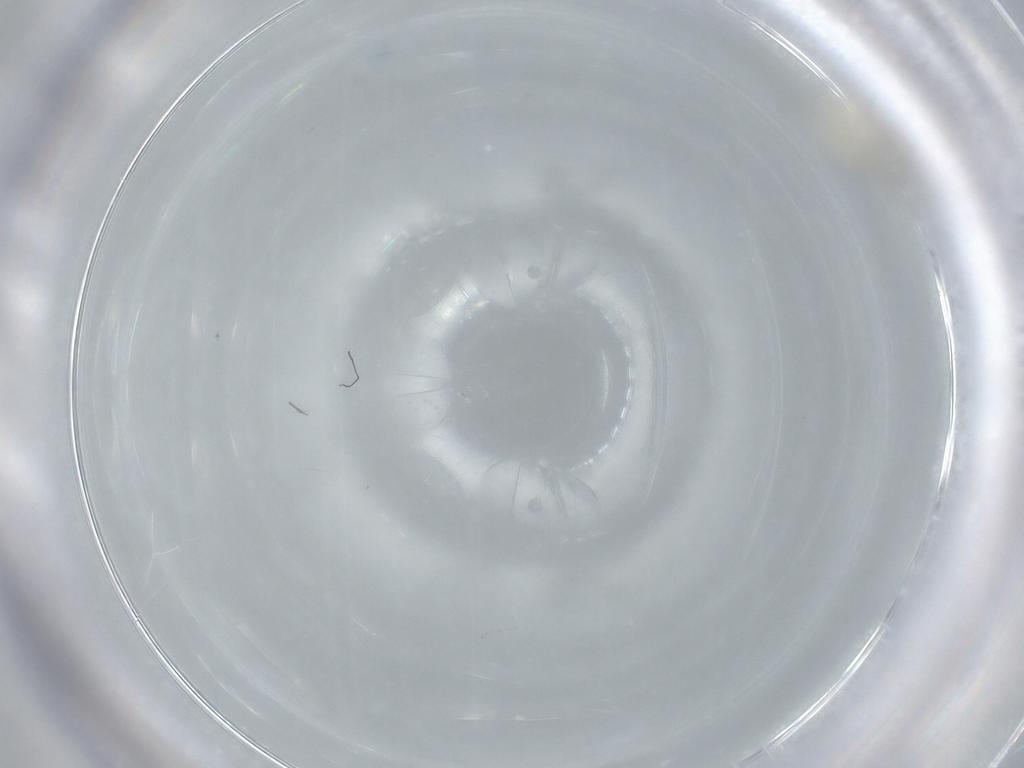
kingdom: Animalia
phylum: Arthropoda
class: Insecta
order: Diptera
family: Cecidomyiidae
